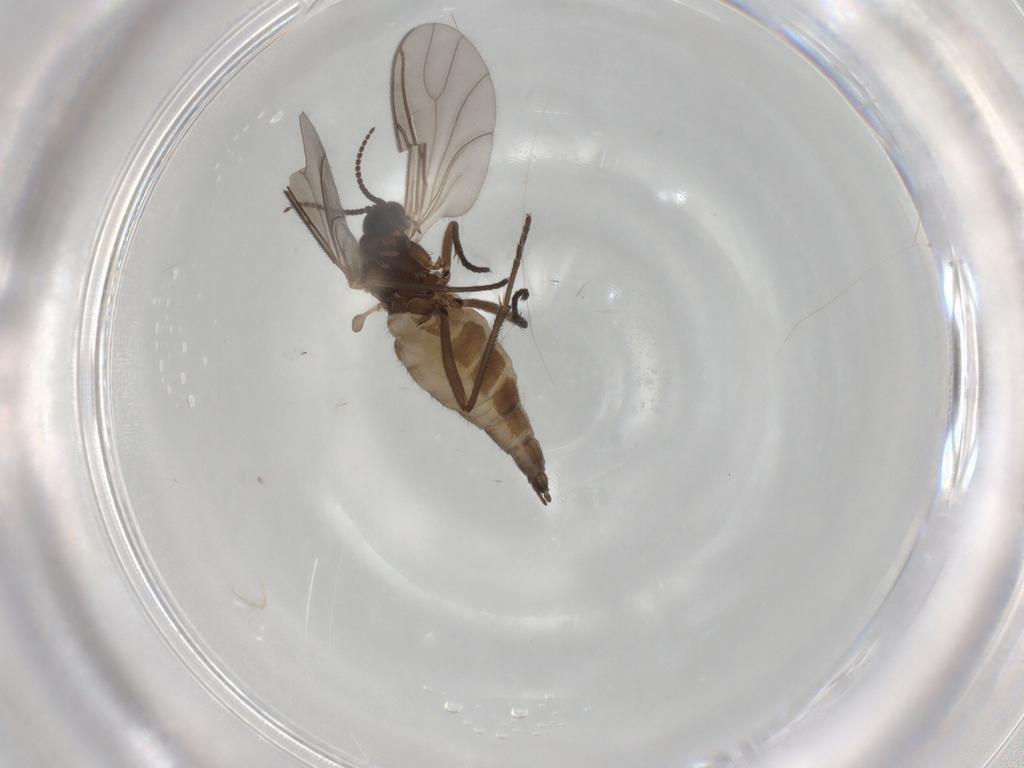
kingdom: Animalia
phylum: Arthropoda
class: Insecta
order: Diptera
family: Sciaridae
